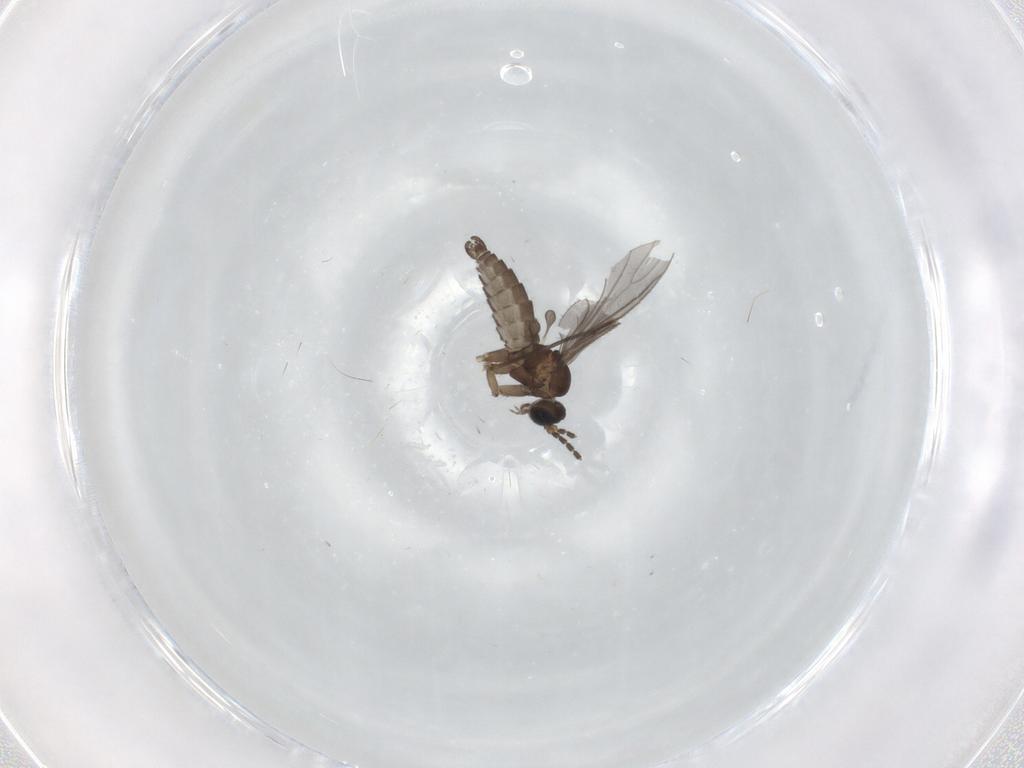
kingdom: Animalia
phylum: Arthropoda
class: Insecta
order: Diptera
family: Sciaridae
